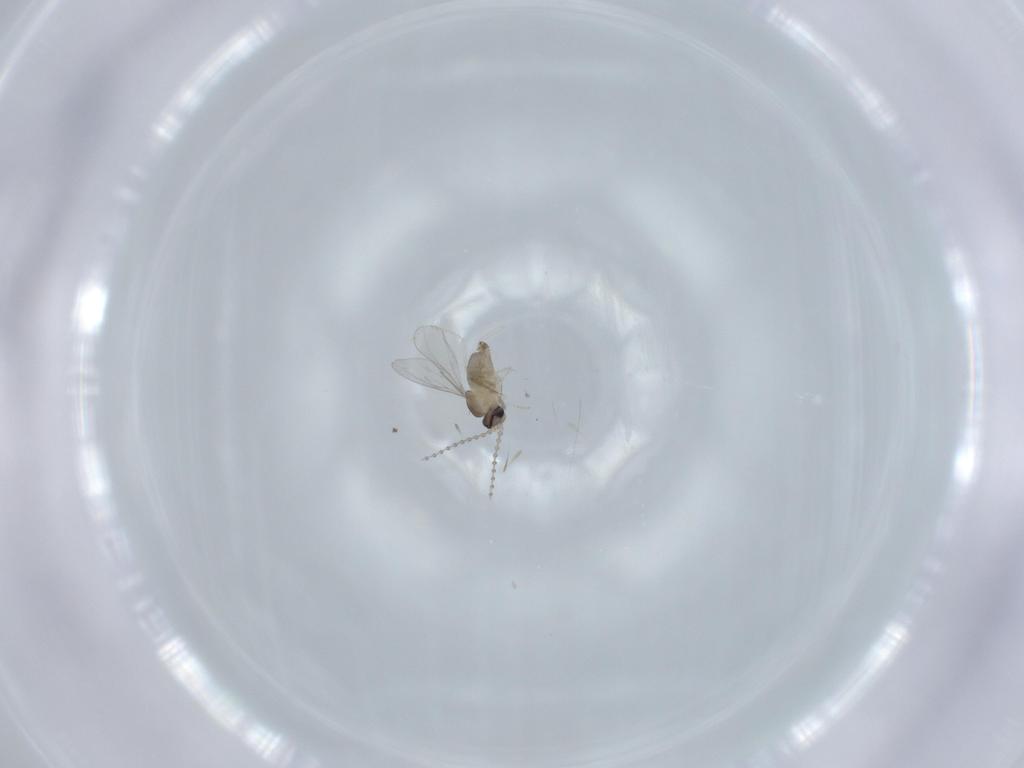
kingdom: Animalia
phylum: Arthropoda
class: Insecta
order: Diptera
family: Cecidomyiidae
